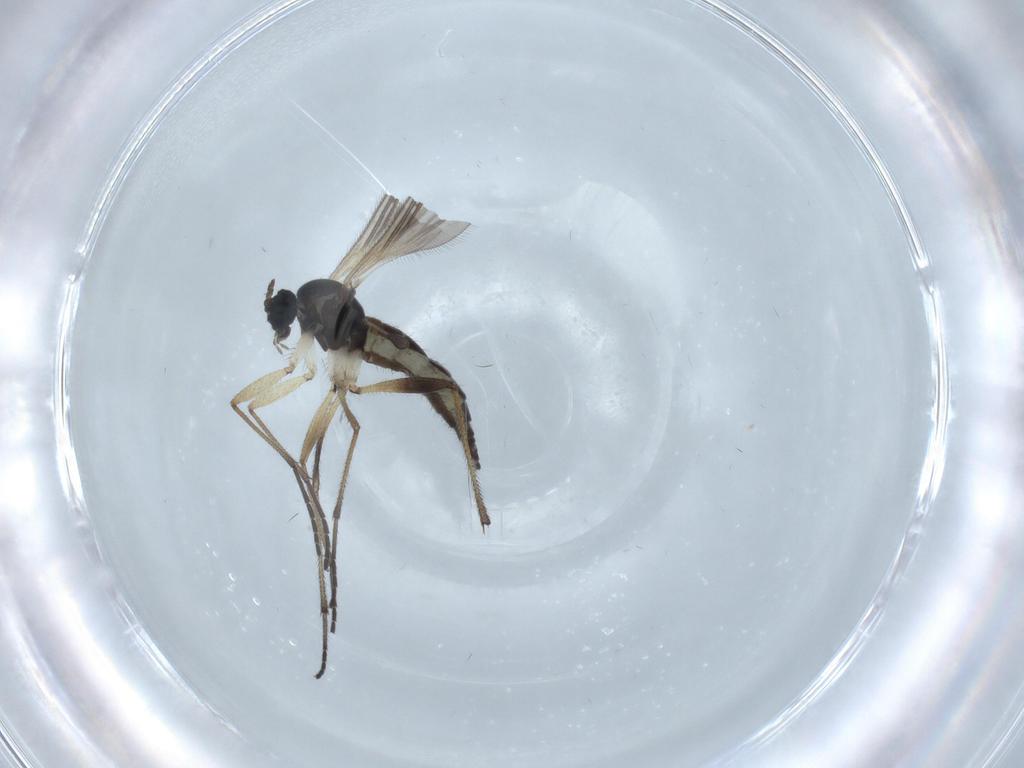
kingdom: Animalia
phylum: Arthropoda
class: Insecta
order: Diptera
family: Sciaridae
